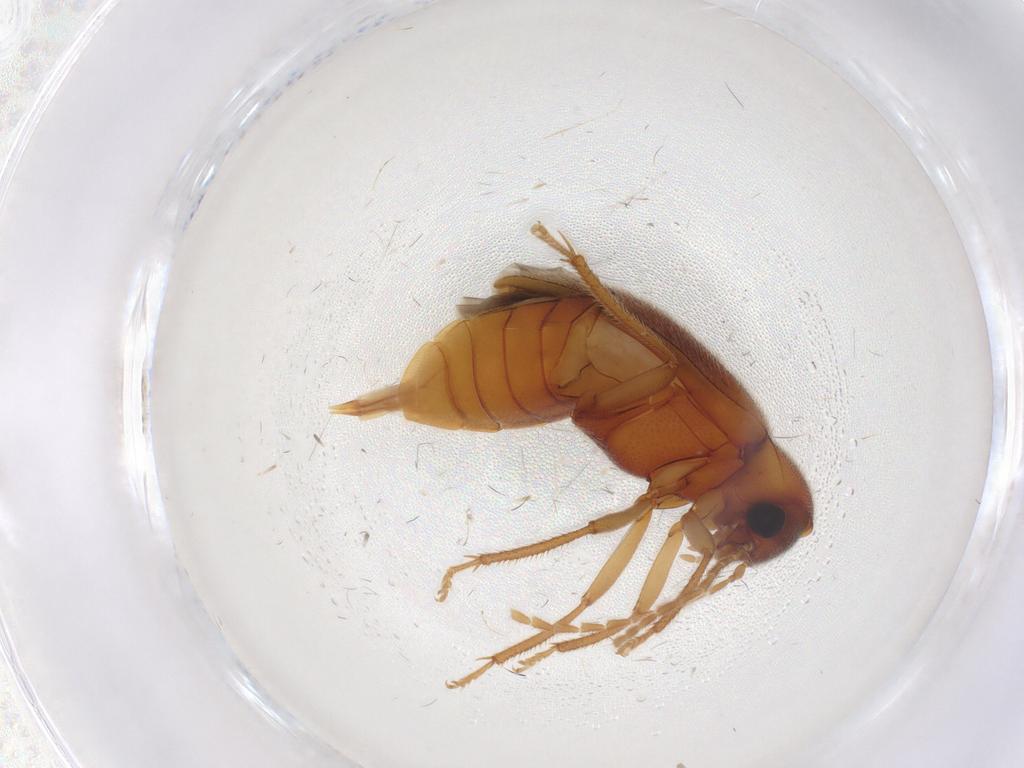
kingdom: Animalia
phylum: Arthropoda
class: Insecta
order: Coleoptera
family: Ptilodactylidae
